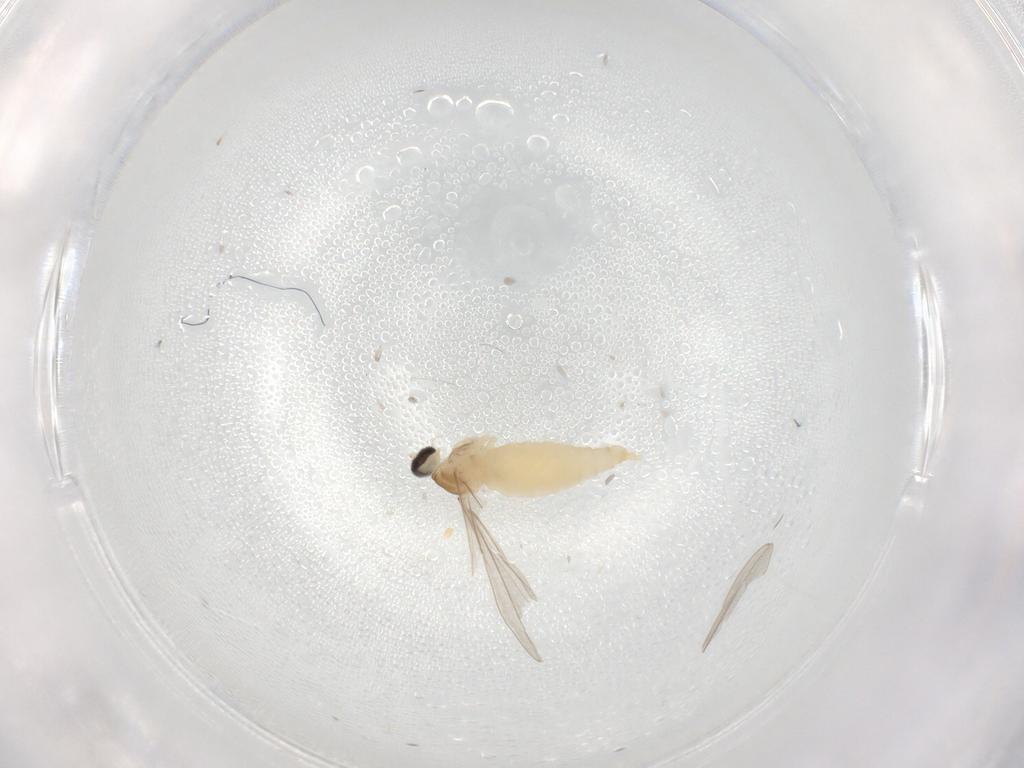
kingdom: Animalia
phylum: Arthropoda
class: Insecta
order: Diptera
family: Cecidomyiidae
